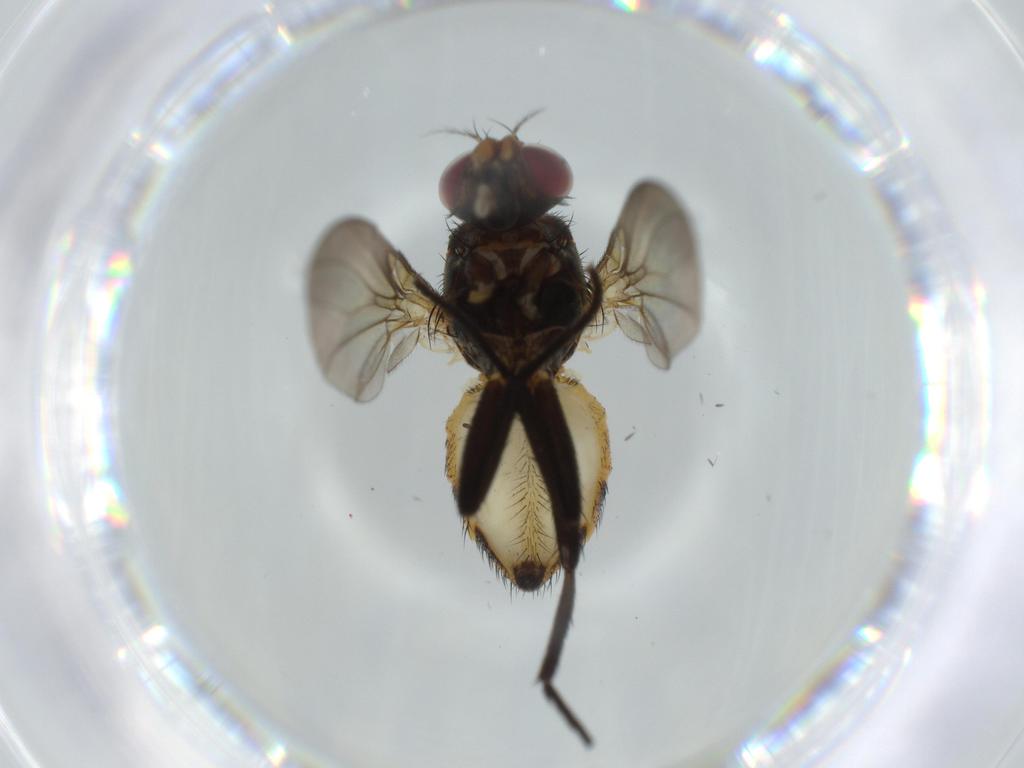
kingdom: Animalia
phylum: Arthropoda
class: Insecta
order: Diptera
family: Anthomyiidae
